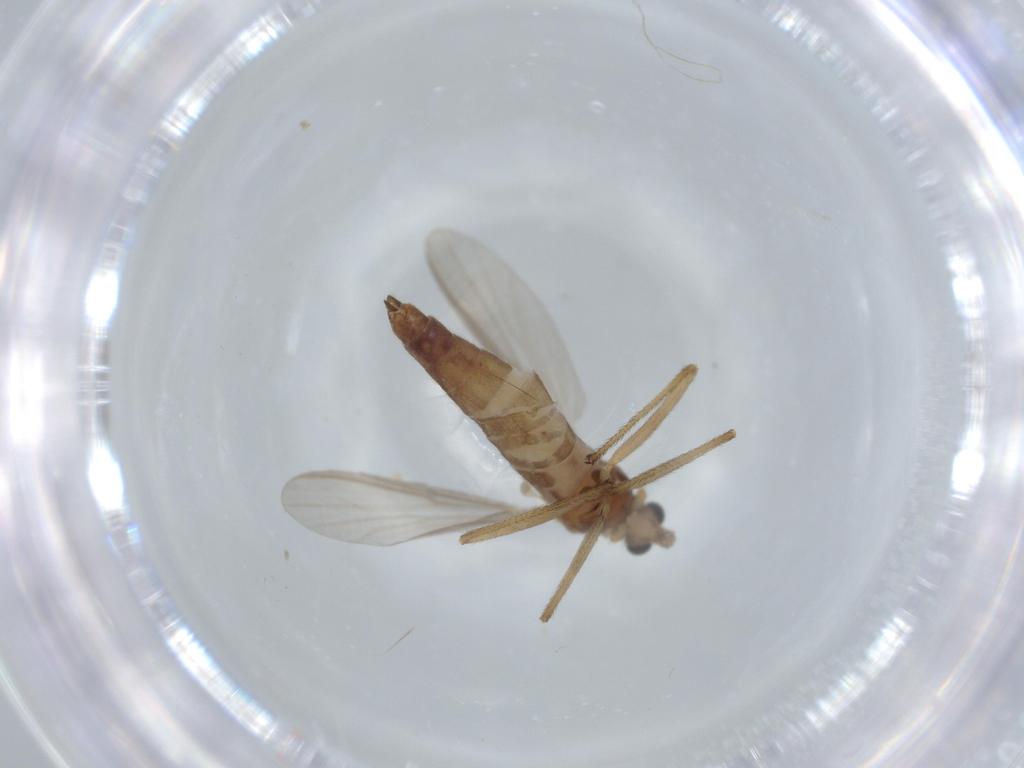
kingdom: Animalia
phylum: Arthropoda
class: Insecta
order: Diptera
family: Chironomidae
